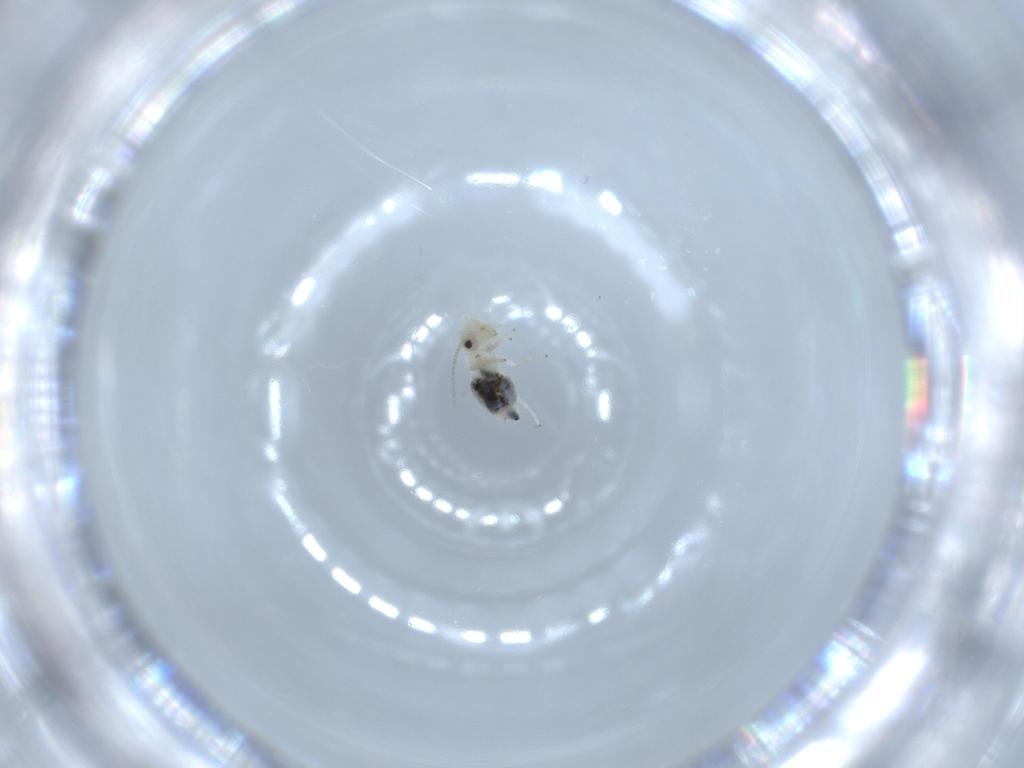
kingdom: Animalia
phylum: Arthropoda
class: Insecta
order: Psocodea
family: Caeciliusidae
